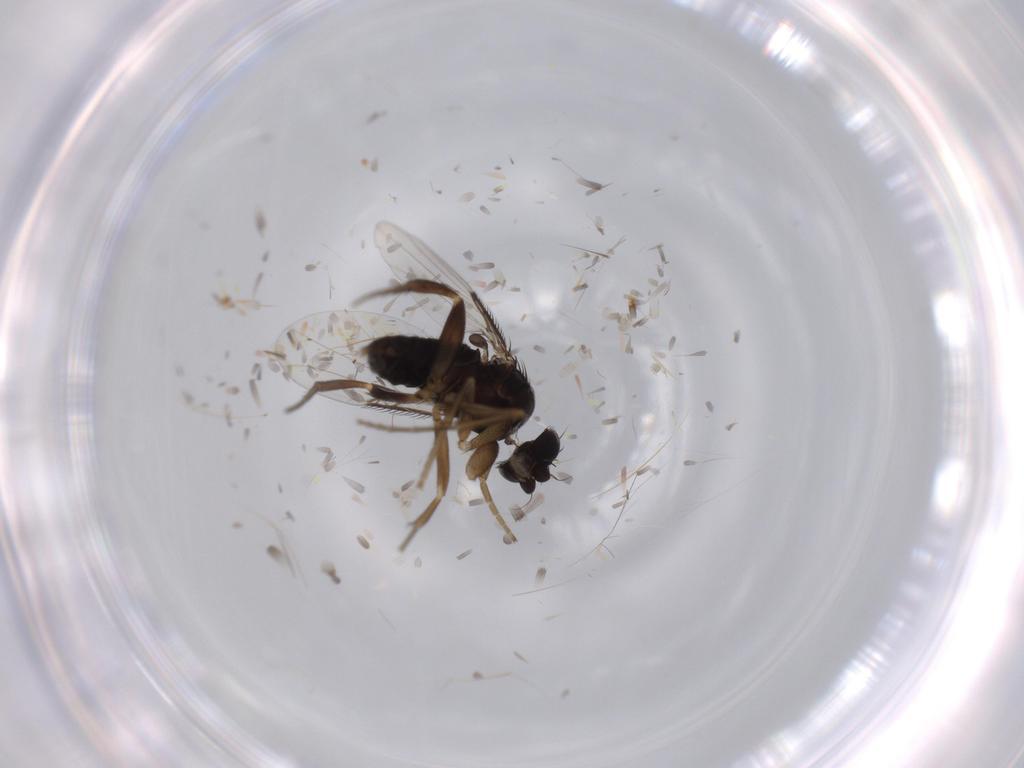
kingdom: Animalia
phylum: Arthropoda
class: Insecta
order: Diptera
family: Phoridae
